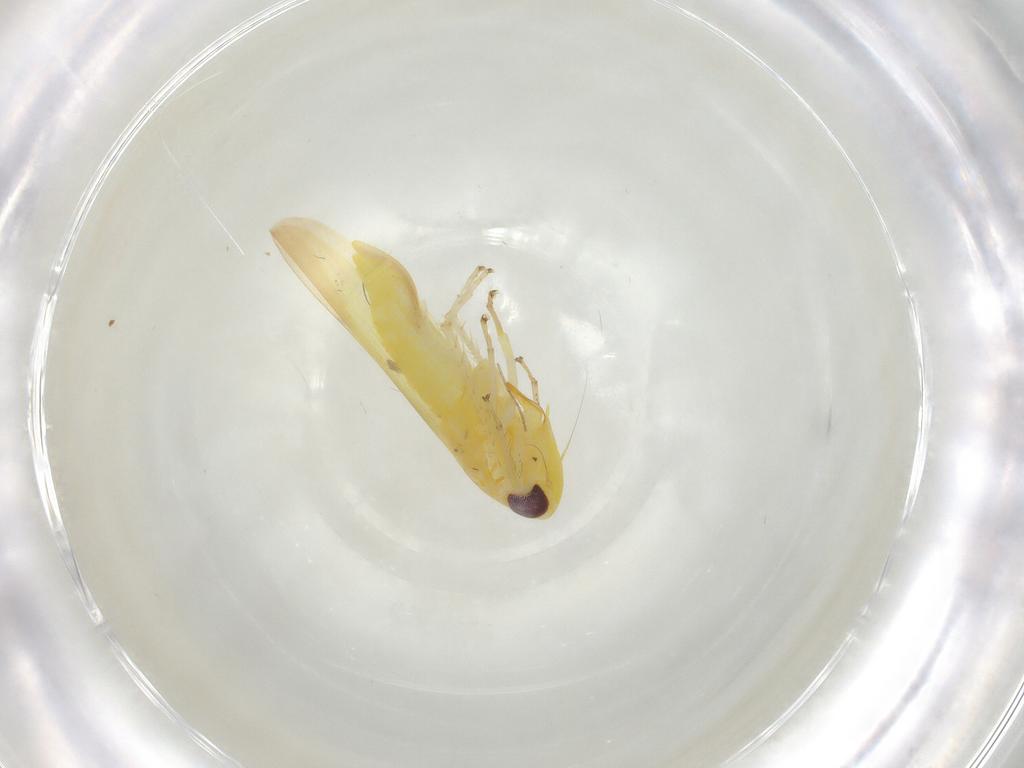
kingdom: Animalia
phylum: Arthropoda
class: Insecta
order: Hemiptera
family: Cicadellidae
